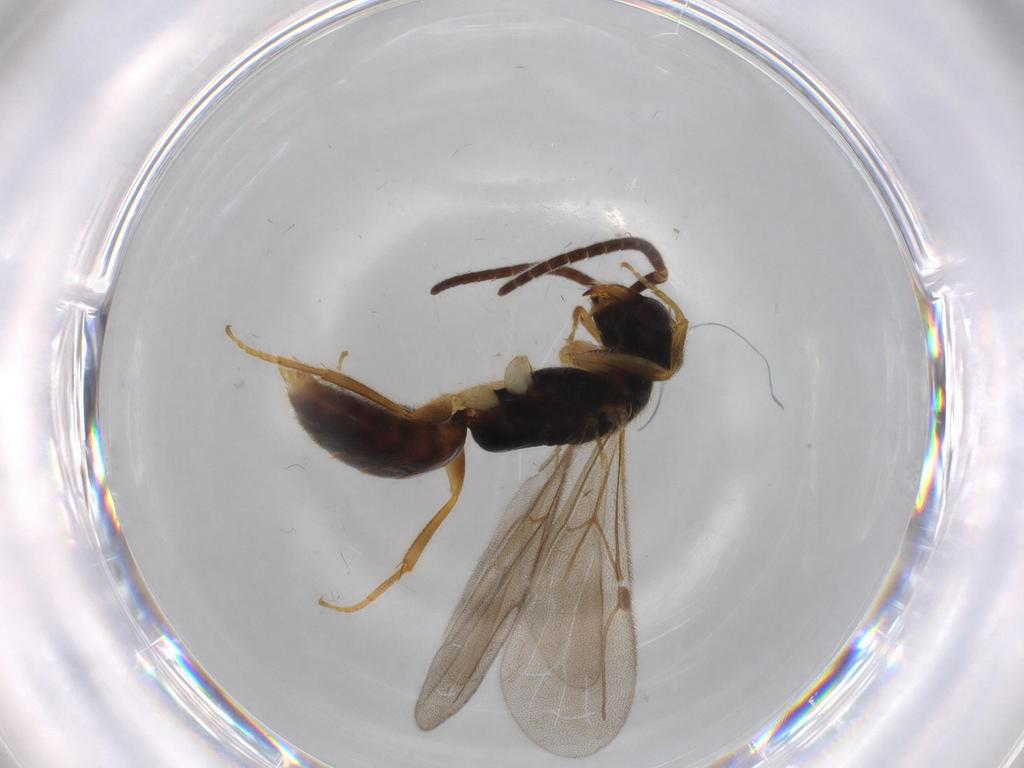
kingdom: Animalia
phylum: Arthropoda
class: Insecta
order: Hymenoptera
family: Bethylidae
